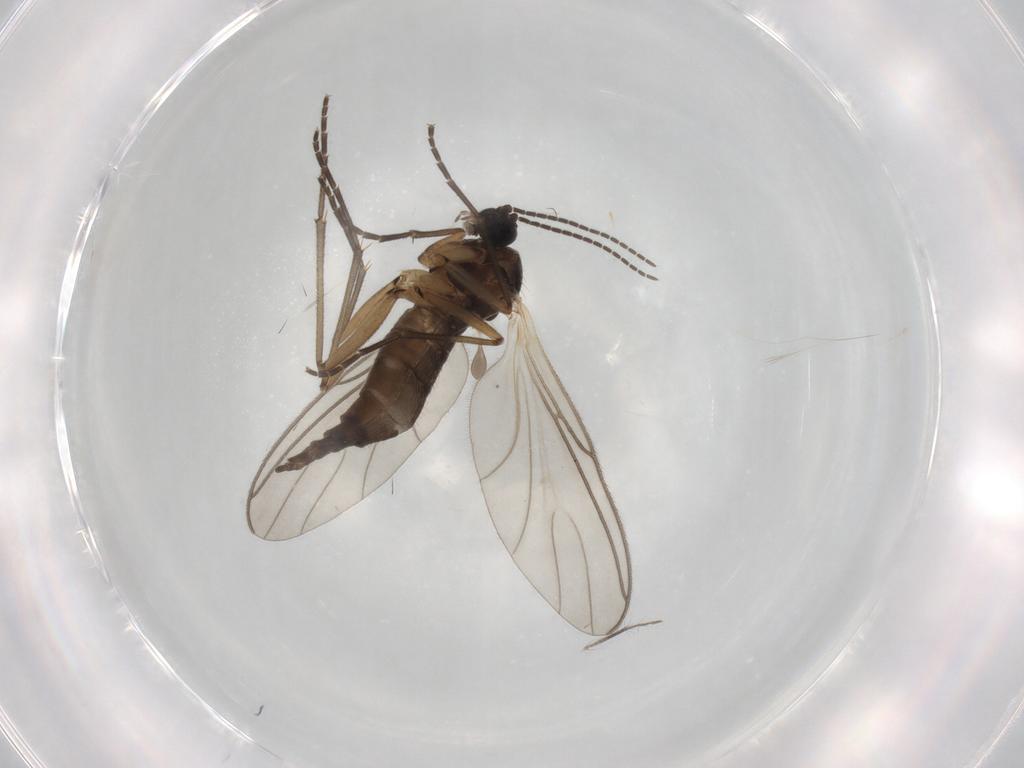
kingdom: Animalia
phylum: Arthropoda
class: Insecta
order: Diptera
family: Sciaridae
